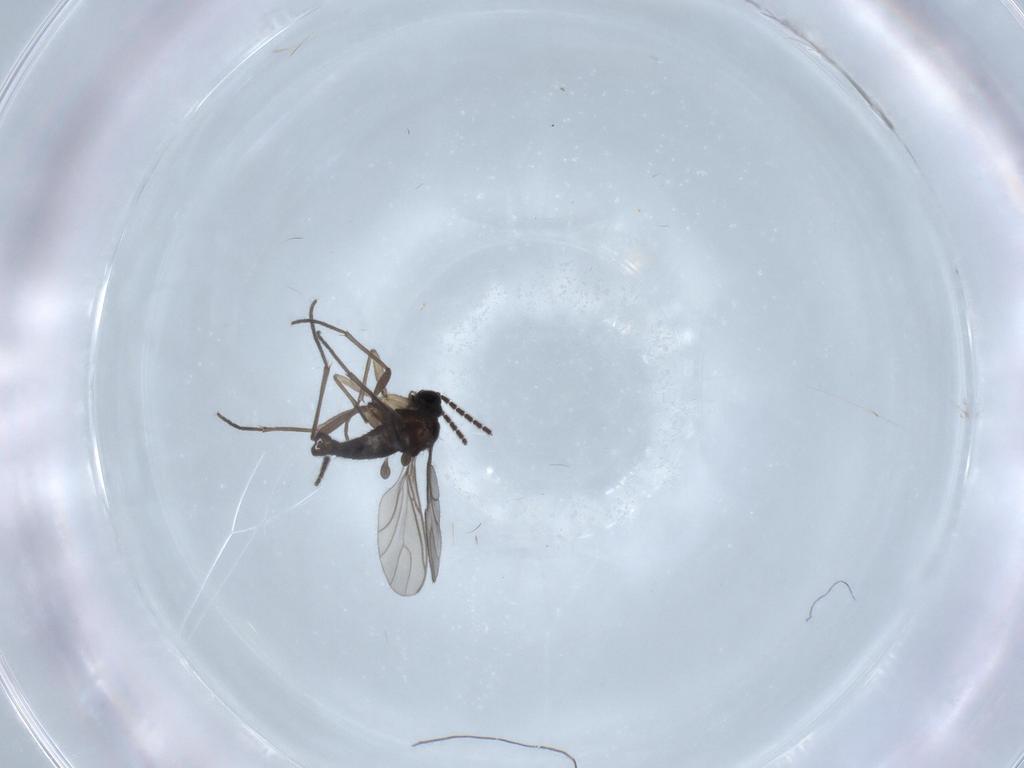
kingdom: Animalia
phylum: Arthropoda
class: Insecta
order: Diptera
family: Sciaridae
